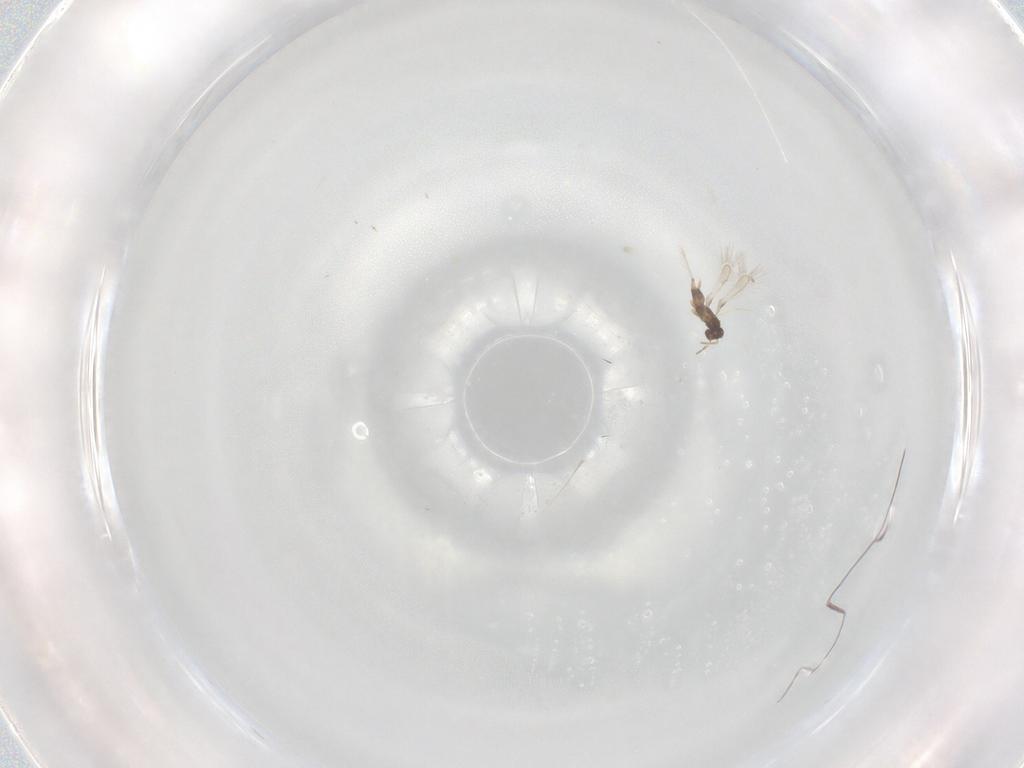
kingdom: Animalia
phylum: Arthropoda
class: Insecta
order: Hymenoptera
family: Mymaridae
